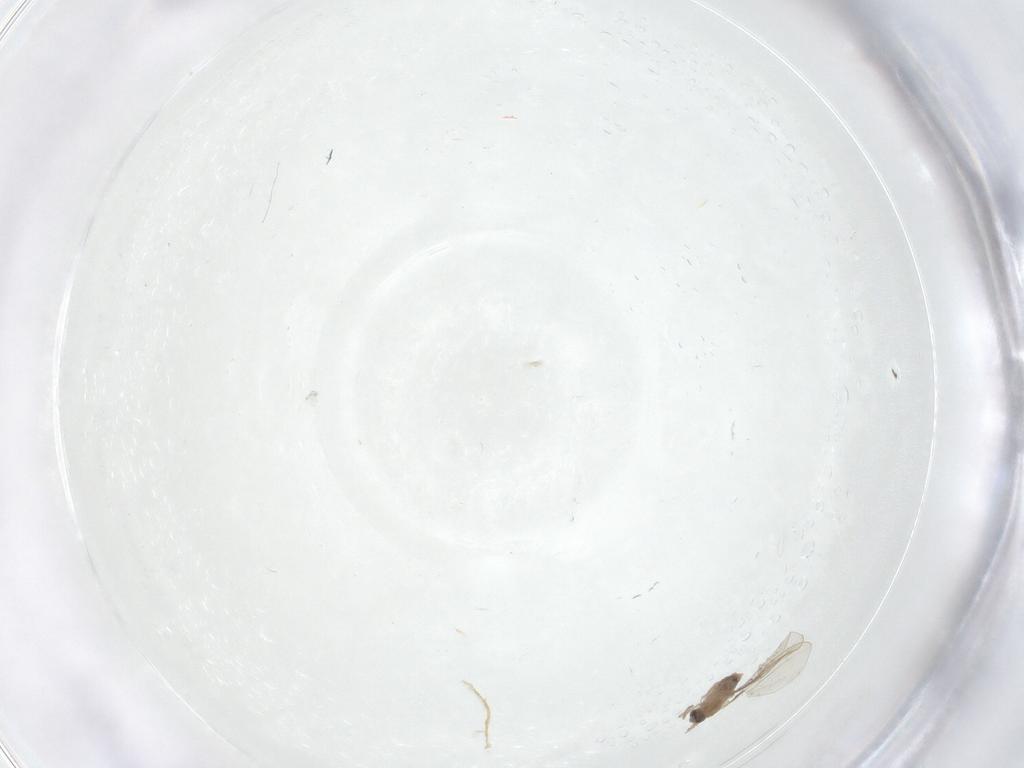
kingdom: Animalia
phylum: Arthropoda
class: Insecta
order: Diptera
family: Cecidomyiidae
